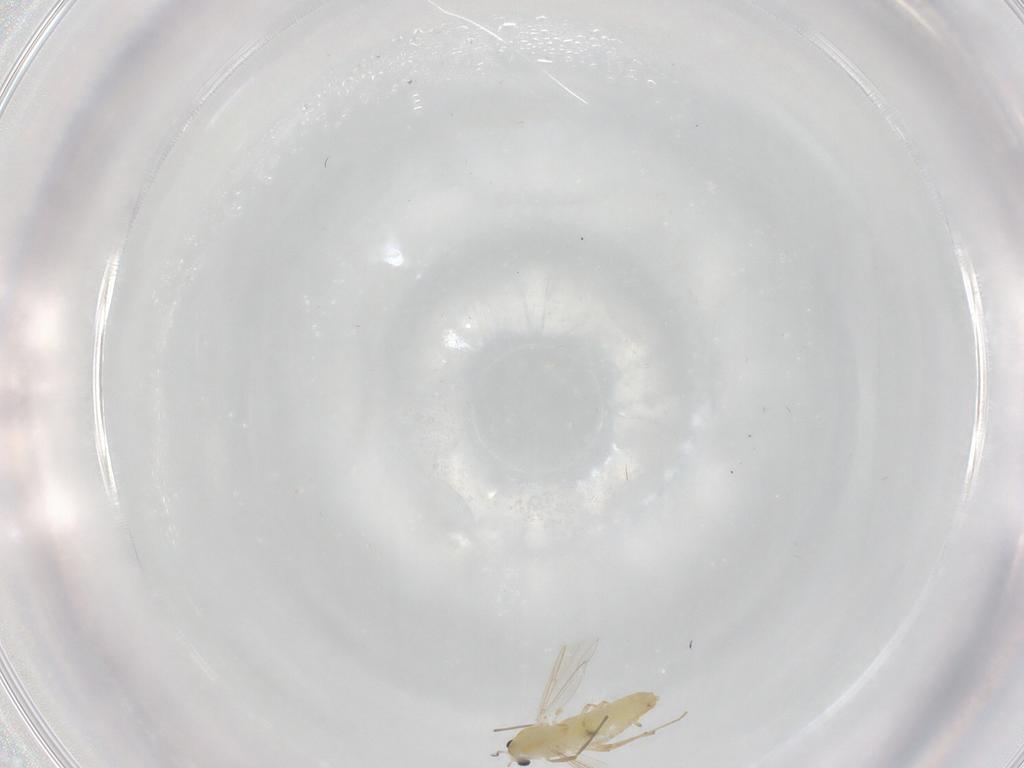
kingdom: Animalia
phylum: Arthropoda
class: Insecta
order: Diptera
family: Chironomidae
